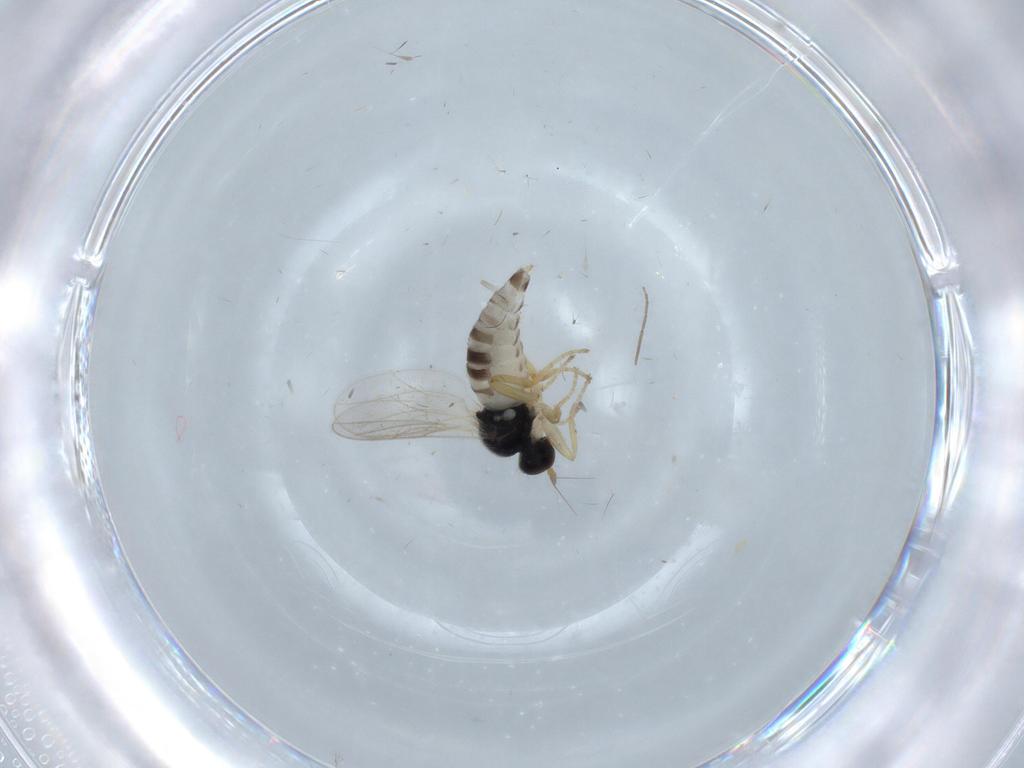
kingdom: Animalia
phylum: Arthropoda
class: Insecta
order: Diptera
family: Hybotidae
